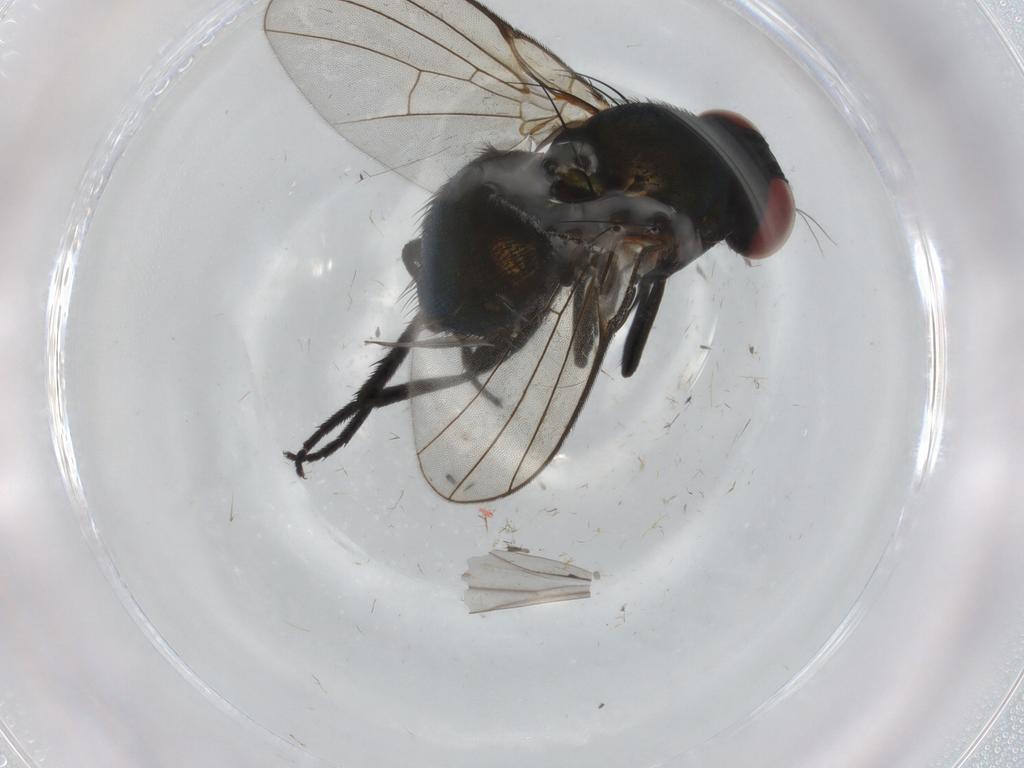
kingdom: Animalia
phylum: Arthropoda
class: Insecta
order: Diptera
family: Agromyzidae
